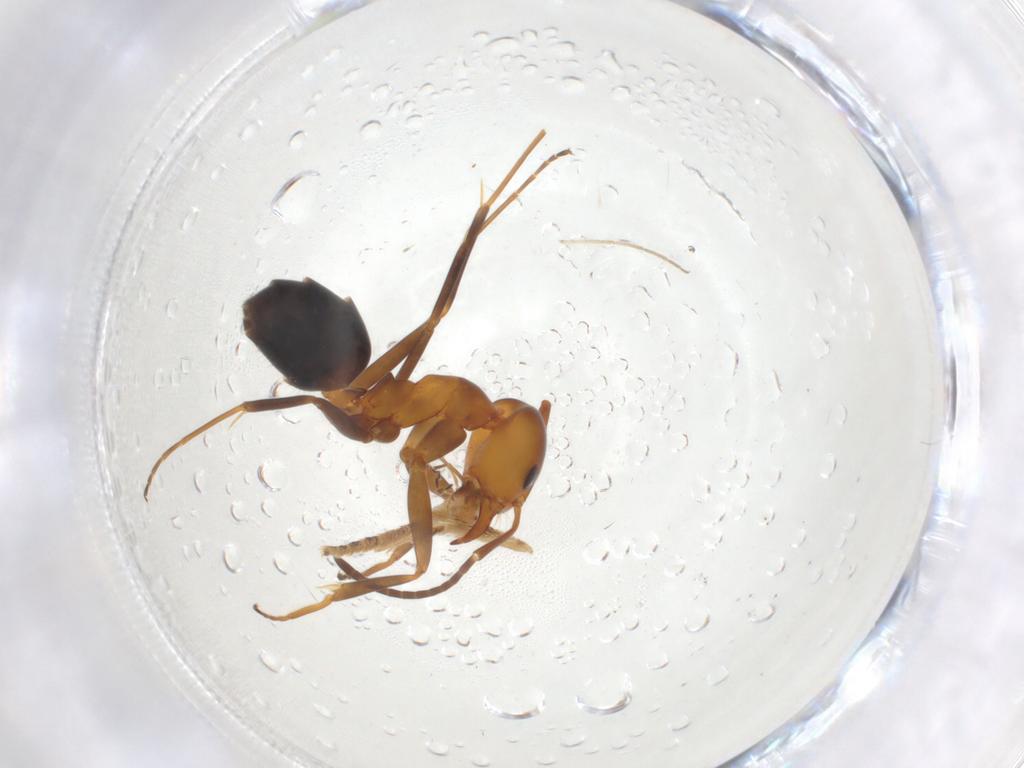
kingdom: Animalia
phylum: Arthropoda
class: Insecta
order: Hymenoptera
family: Formicidae
